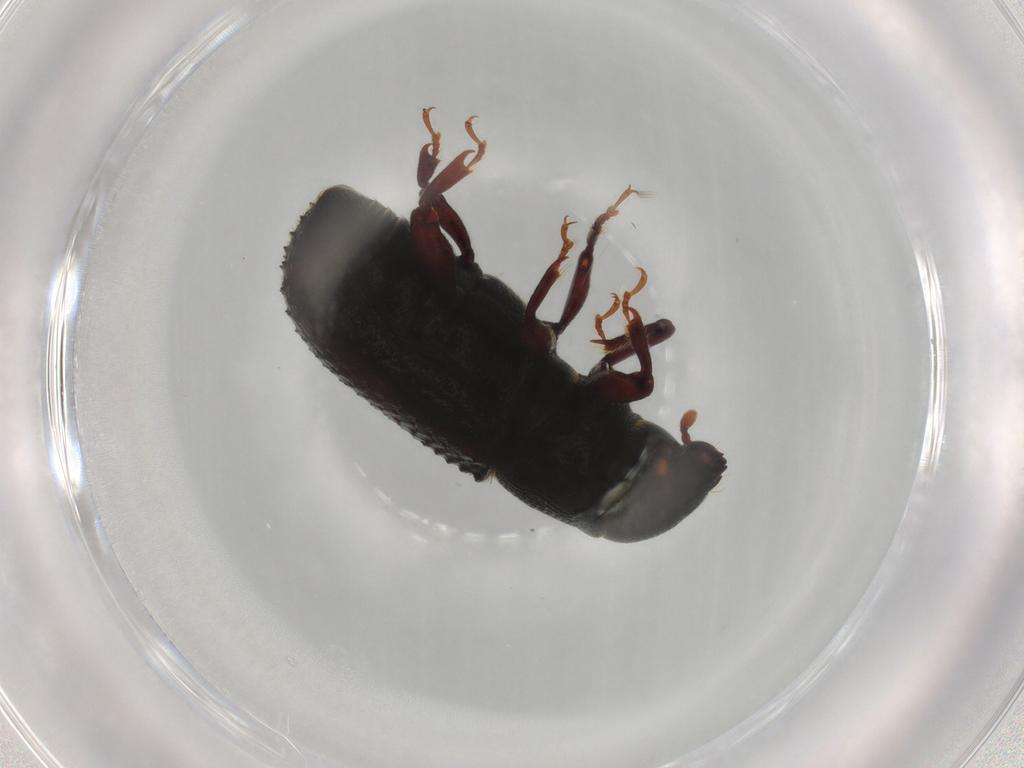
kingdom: Animalia
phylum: Arthropoda
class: Insecta
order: Coleoptera
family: Curculionidae
